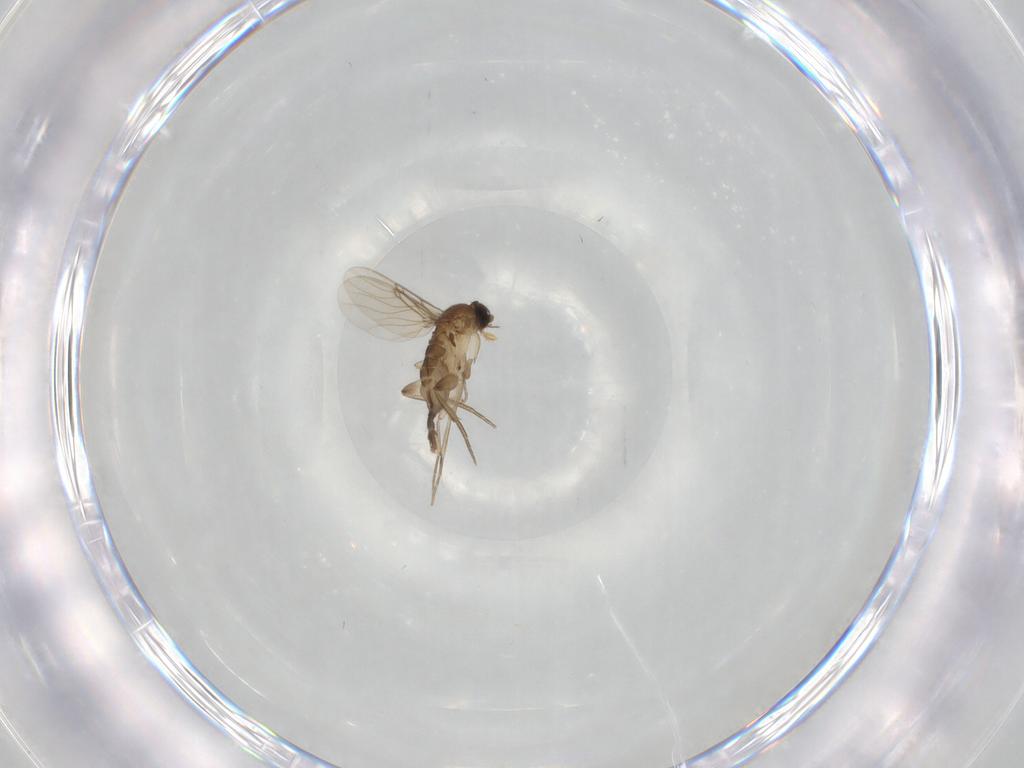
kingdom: Animalia
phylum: Arthropoda
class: Insecta
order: Diptera
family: Phoridae
